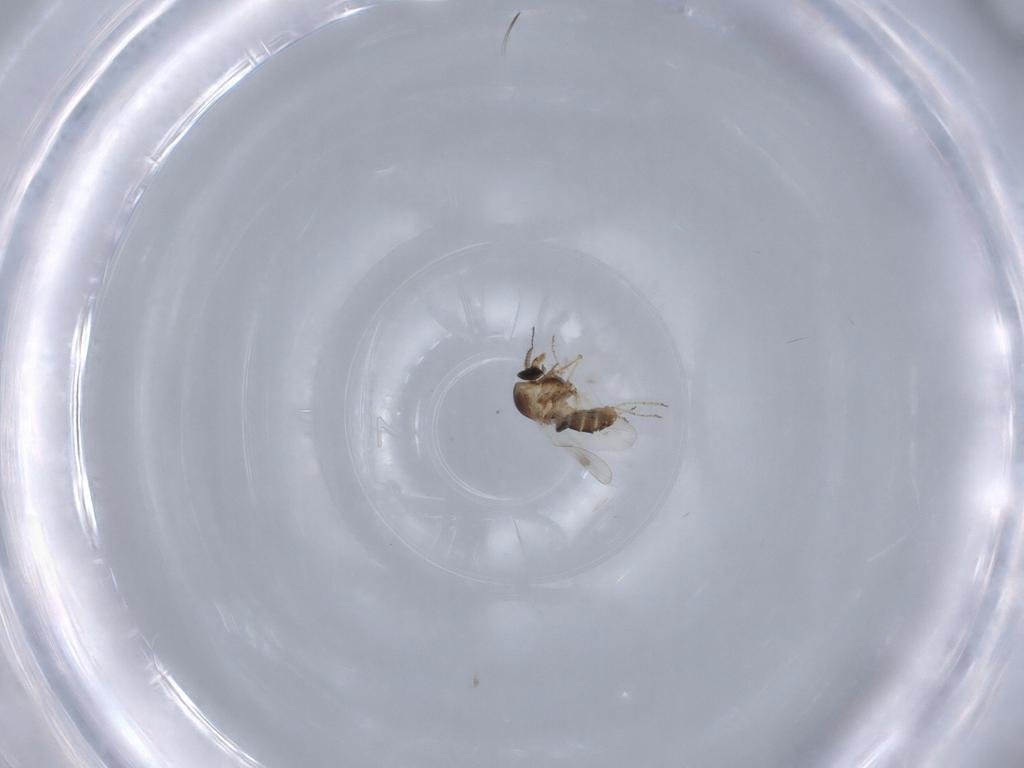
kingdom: Animalia
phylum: Arthropoda
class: Insecta
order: Diptera
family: Ceratopogonidae
